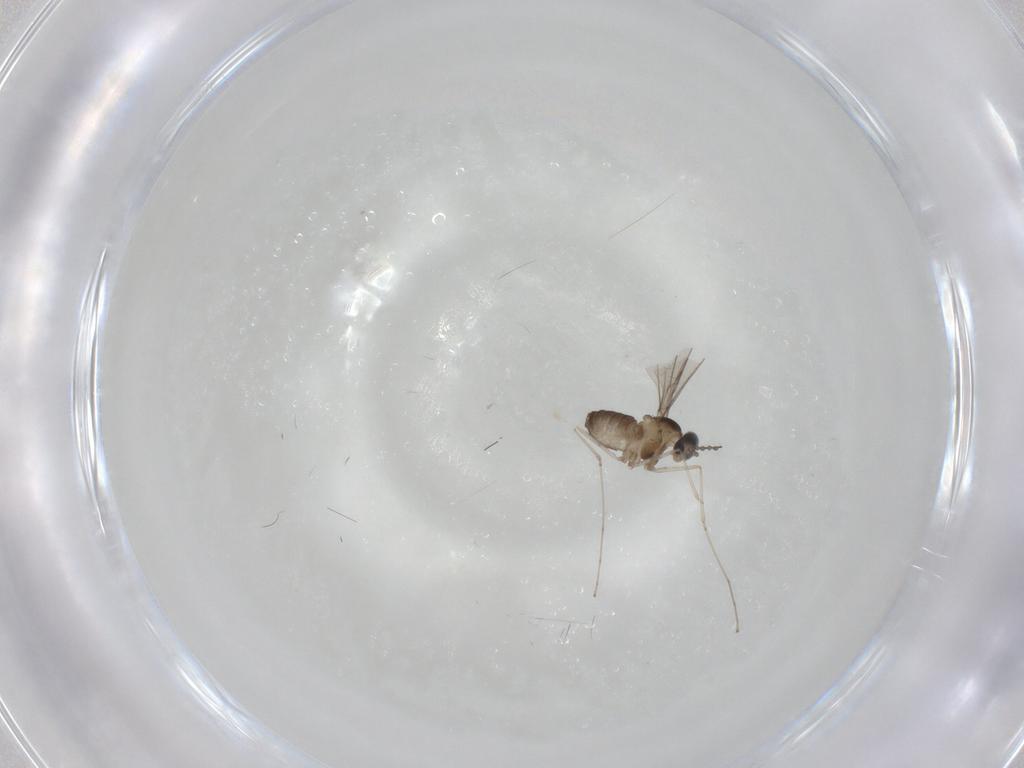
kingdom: Animalia
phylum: Arthropoda
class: Insecta
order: Diptera
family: Cecidomyiidae
